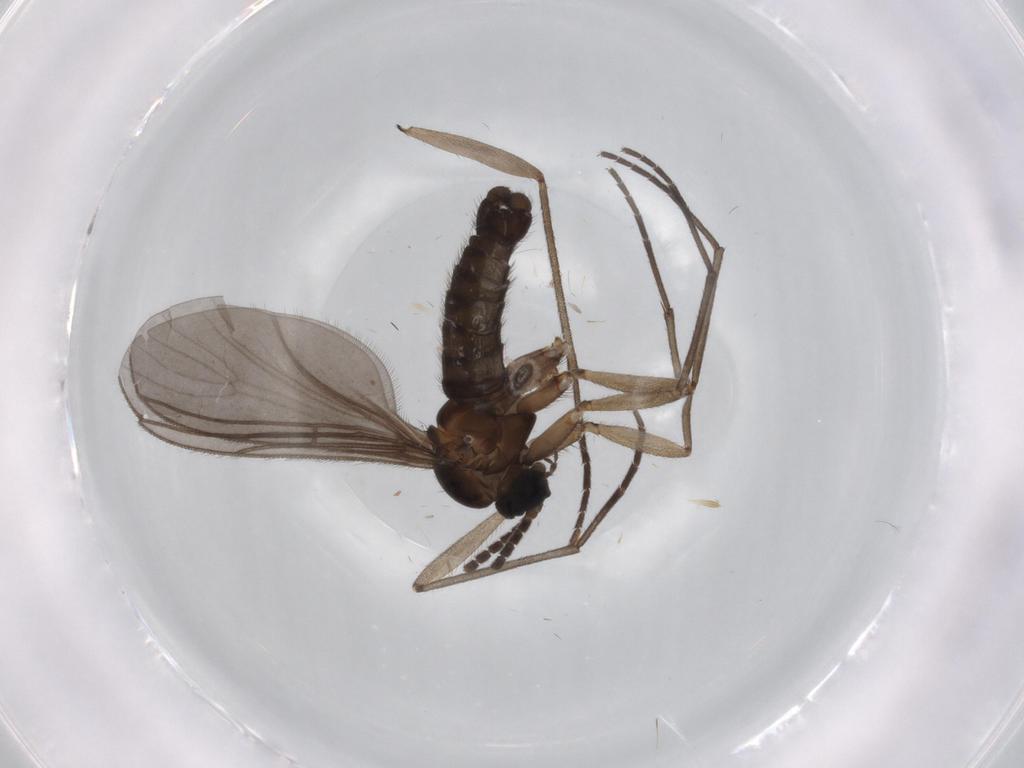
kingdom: Animalia
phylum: Arthropoda
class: Insecta
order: Diptera
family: Sciaridae
